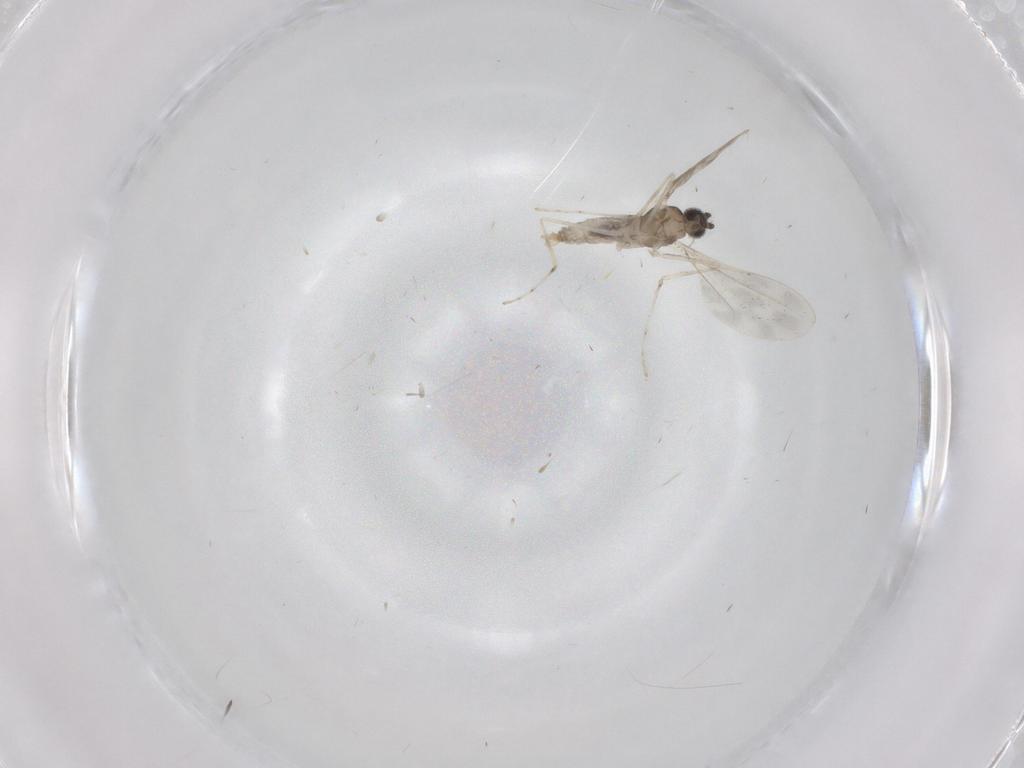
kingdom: Animalia
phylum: Arthropoda
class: Insecta
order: Diptera
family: Cecidomyiidae
